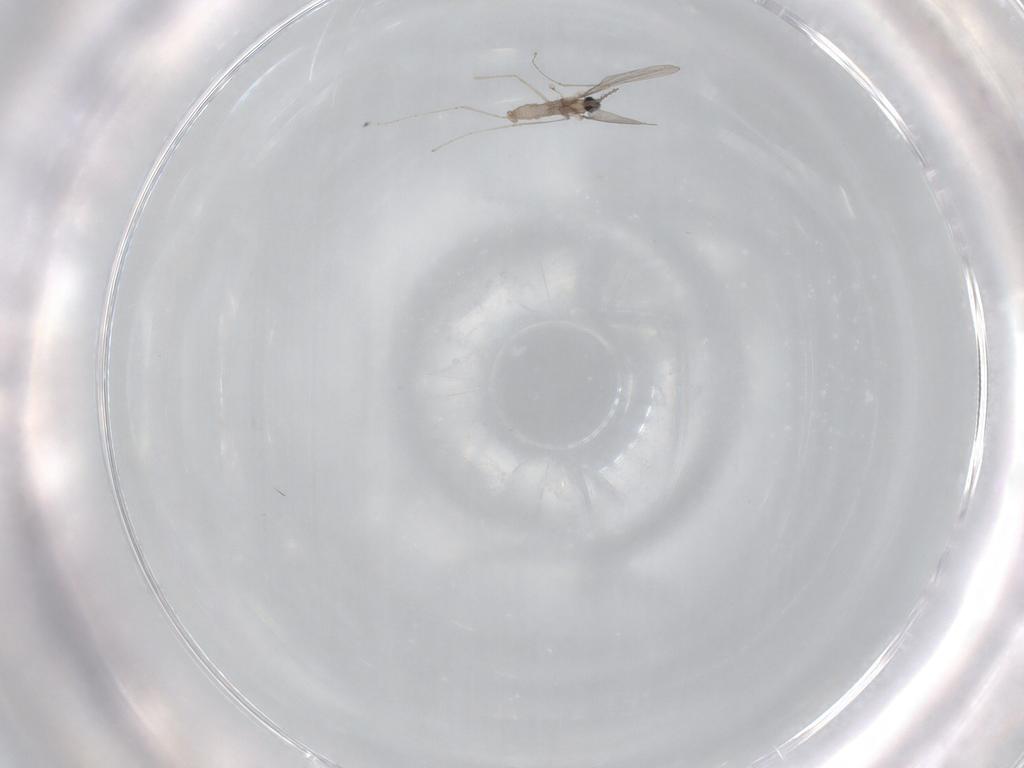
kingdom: Animalia
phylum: Arthropoda
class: Insecta
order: Diptera
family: Cecidomyiidae
